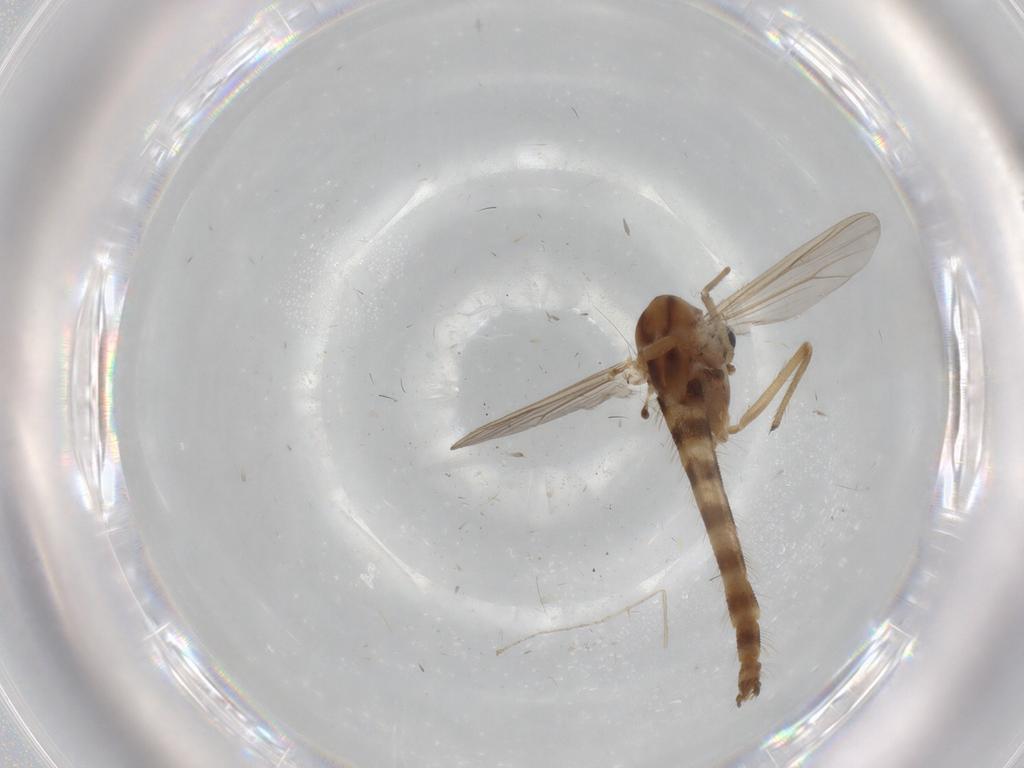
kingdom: Animalia
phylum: Arthropoda
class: Insecta
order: Diptera
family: Chironomidae
